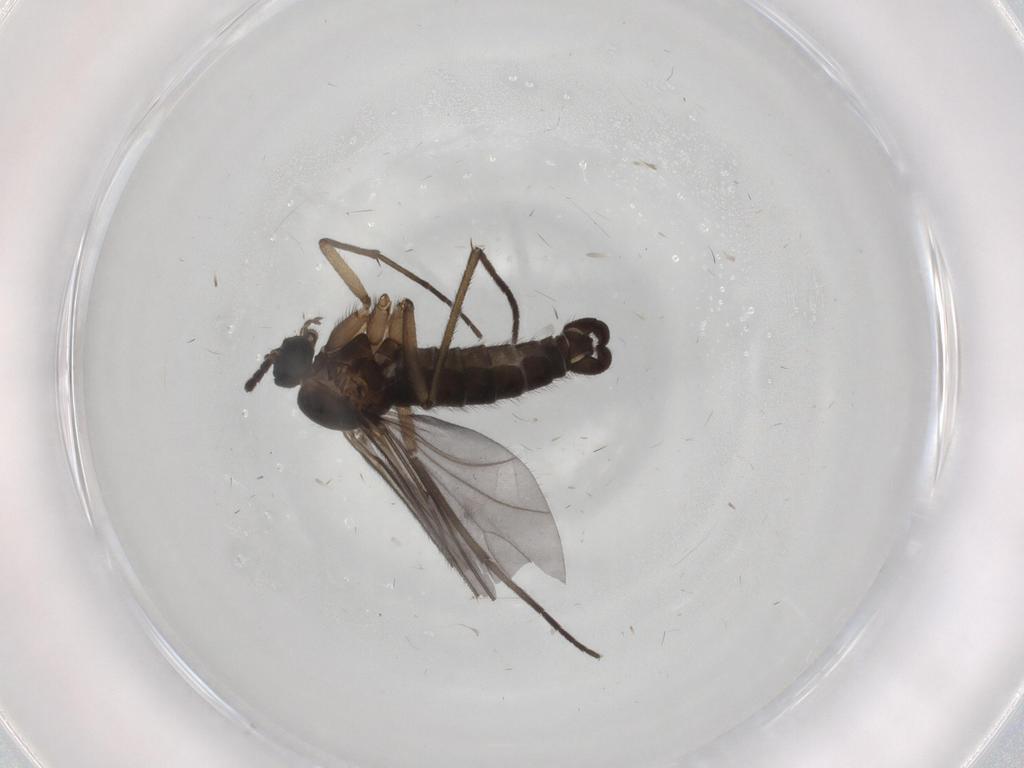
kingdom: Animalia
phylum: Arthropoda
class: Insecta
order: Diptera
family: Sciaridae
